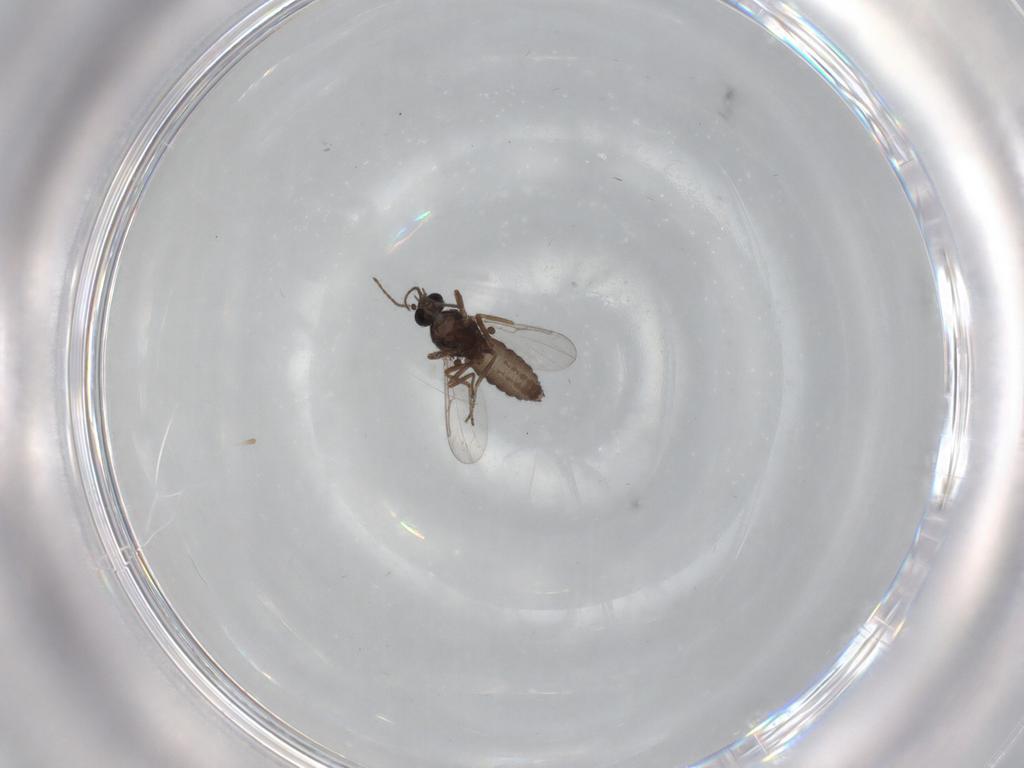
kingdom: Animalia
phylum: Arthropoda
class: Insecta
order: Diptera
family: Ceratopogonidae
